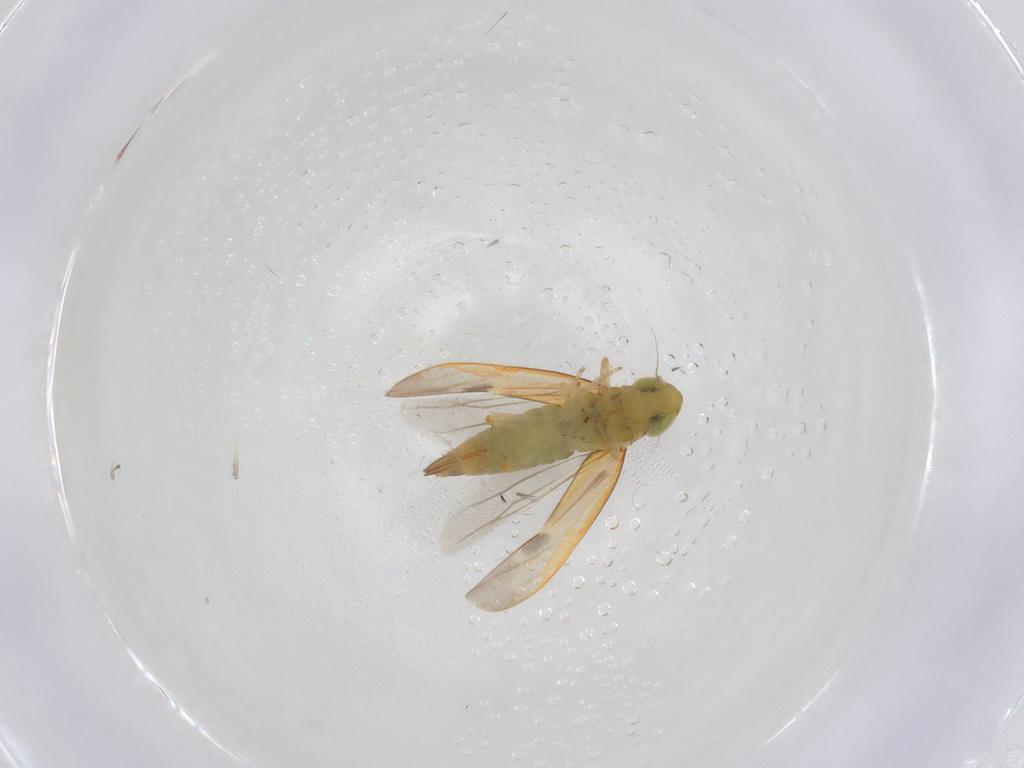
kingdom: Animalia
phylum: Arthropoda
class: Insecta
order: Hemiptera
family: Cicadellidae
